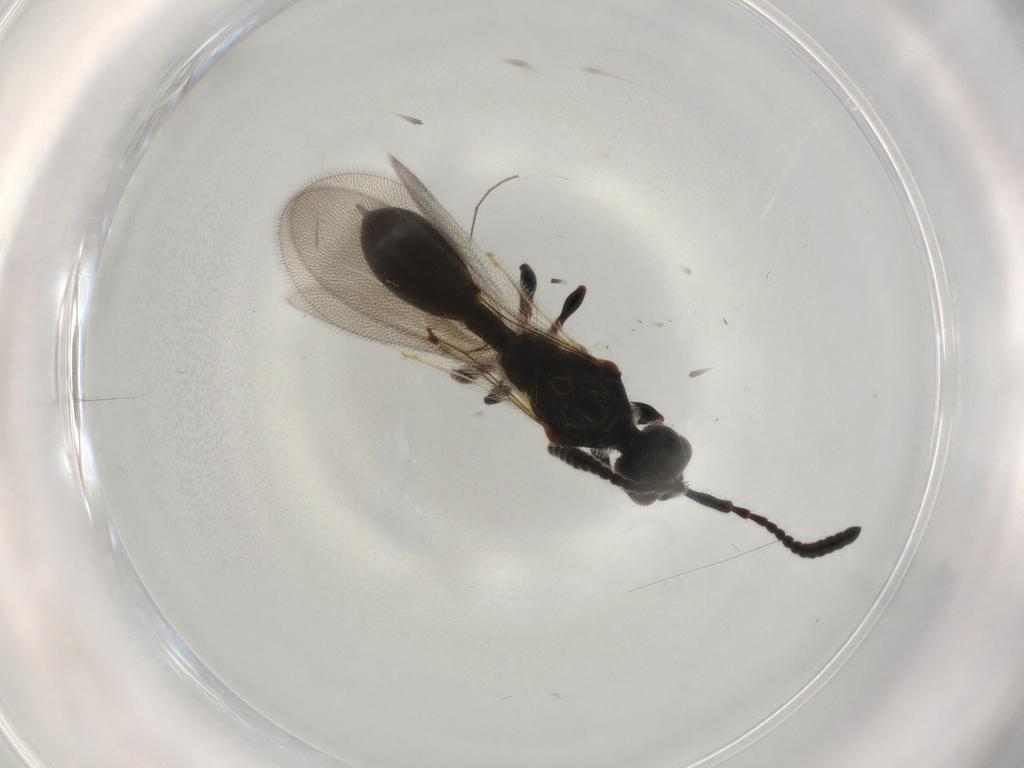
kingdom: Animalia
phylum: Arthropoda
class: Insecta
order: Hymenoptera
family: Diapriidae
